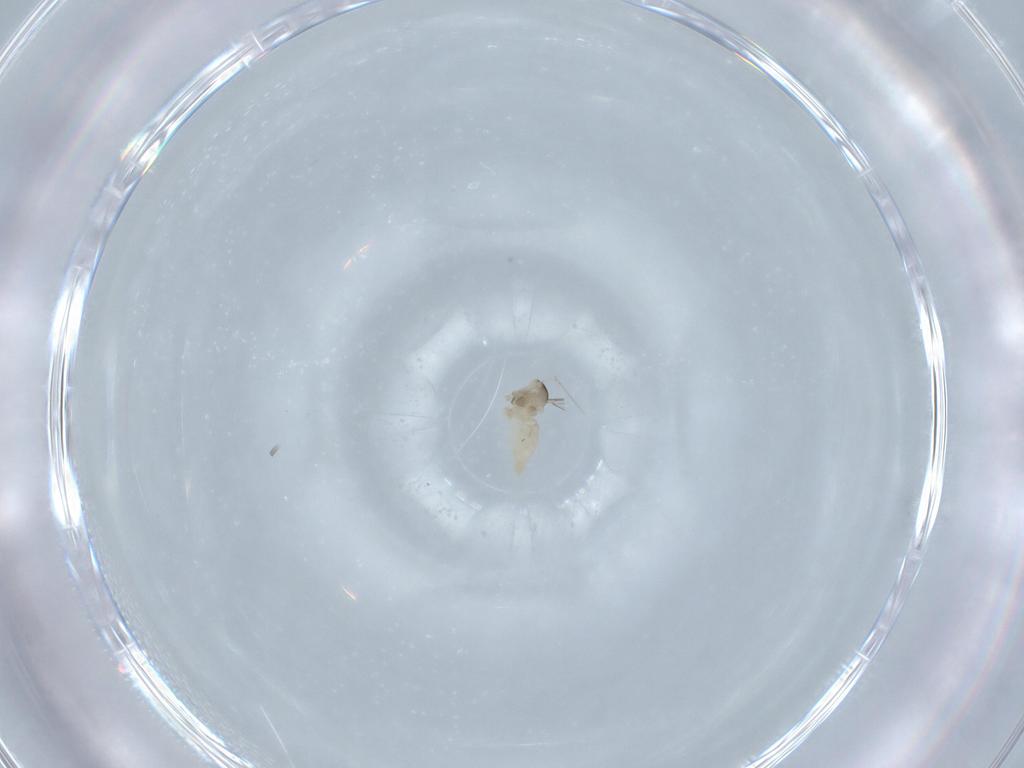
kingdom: Animalia
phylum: Arthropoda
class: Insecta
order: Diptera
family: Cecidomyiidae
